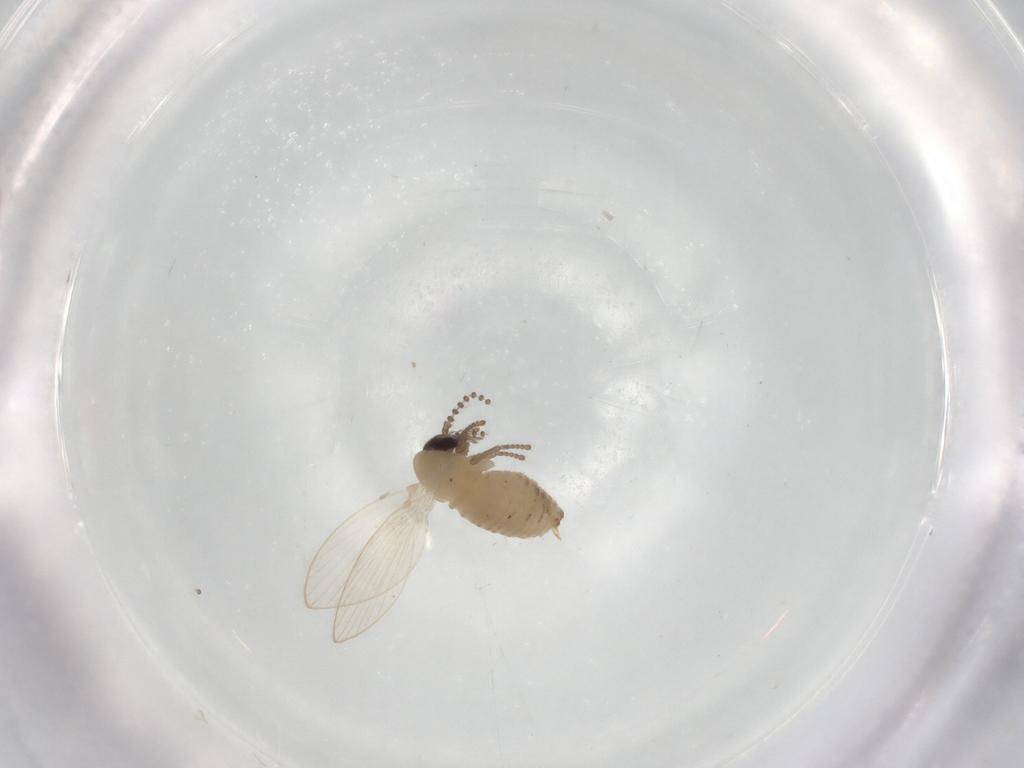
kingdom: Animalia
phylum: Arthropoda
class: Insecta
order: Diptera
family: Psychodidae
